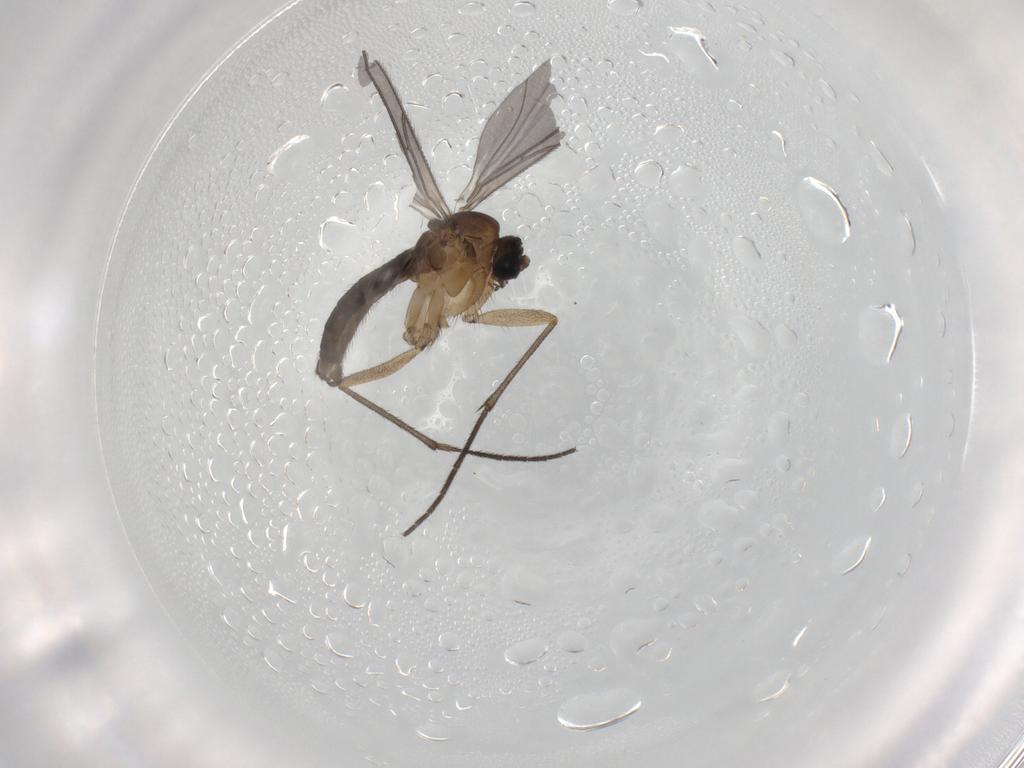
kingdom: Animalia
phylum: Arthropoda
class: Insecta
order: Diptera
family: Sciaridae
